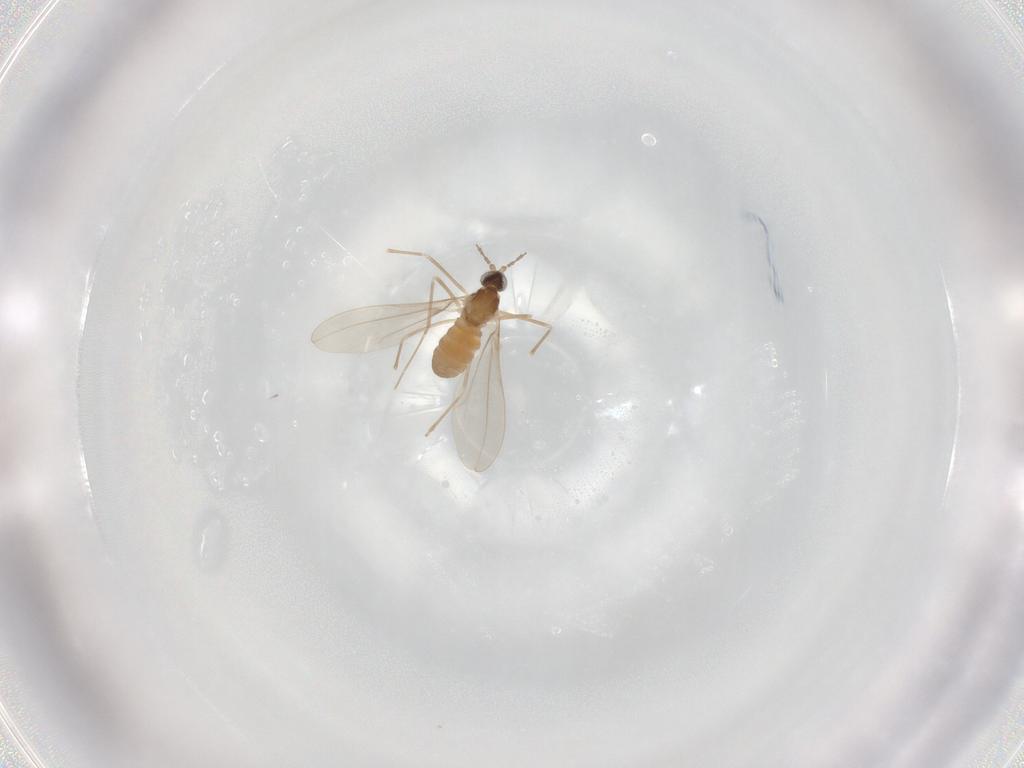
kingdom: Animalia
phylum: Arthropoda
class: Insecta
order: Diptera
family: Cecidomyiidae
